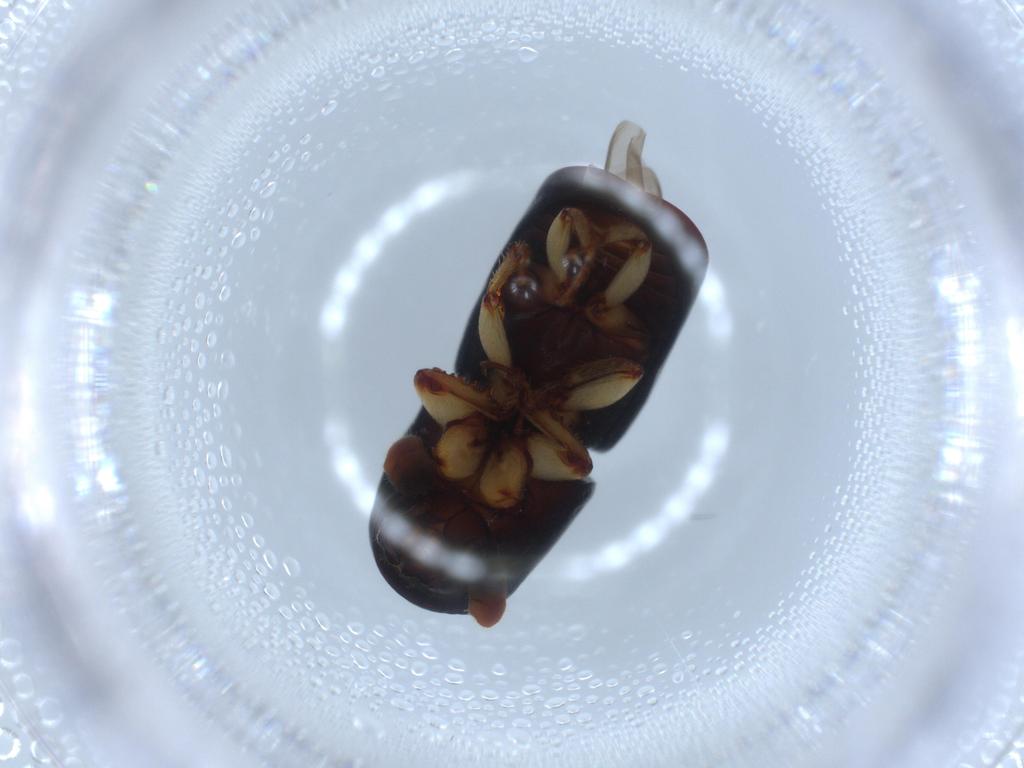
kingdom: Animalia
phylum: Arthropoda
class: Insecta
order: Coleoptera
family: Curculionidae
